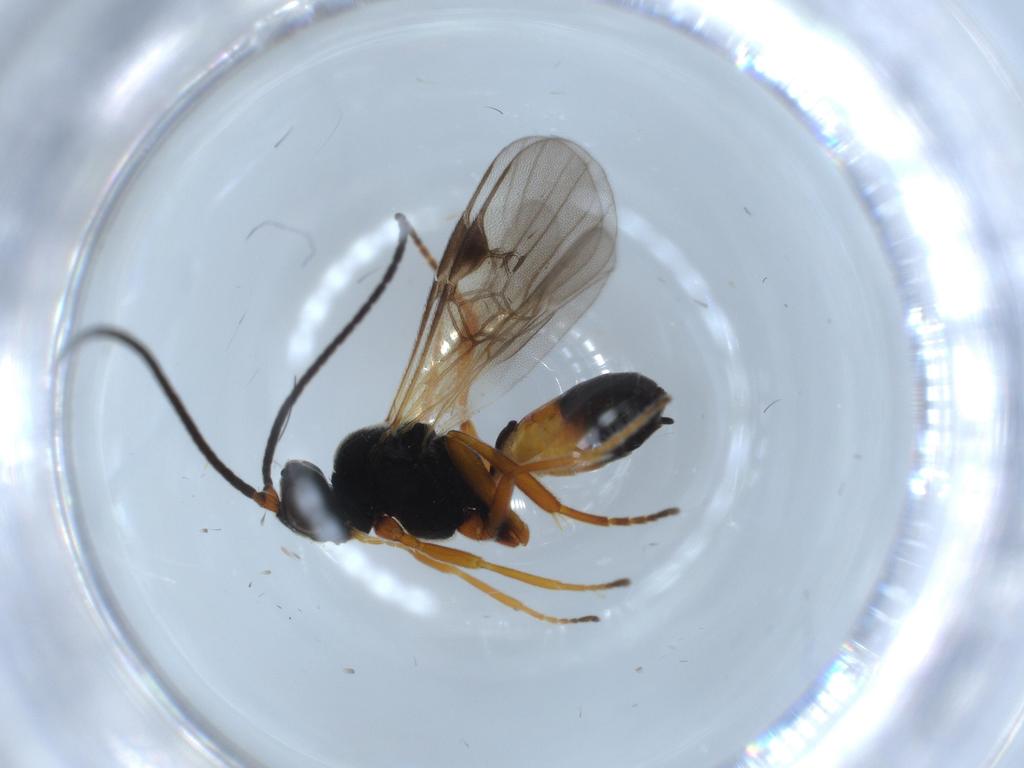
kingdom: Animalia
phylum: Arthropoda
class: Insecta
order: Hymenoptera
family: Braconidae
